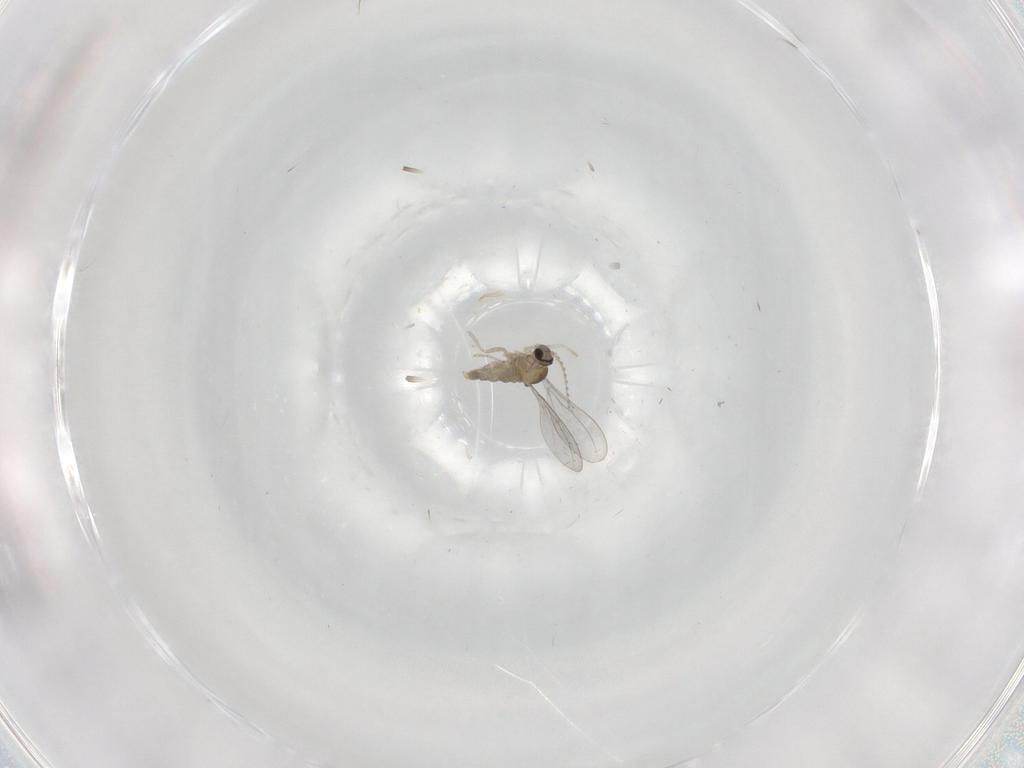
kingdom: Animalia
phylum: Arthropoda
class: Insecta
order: Diptera
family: Cecidomyiidae
